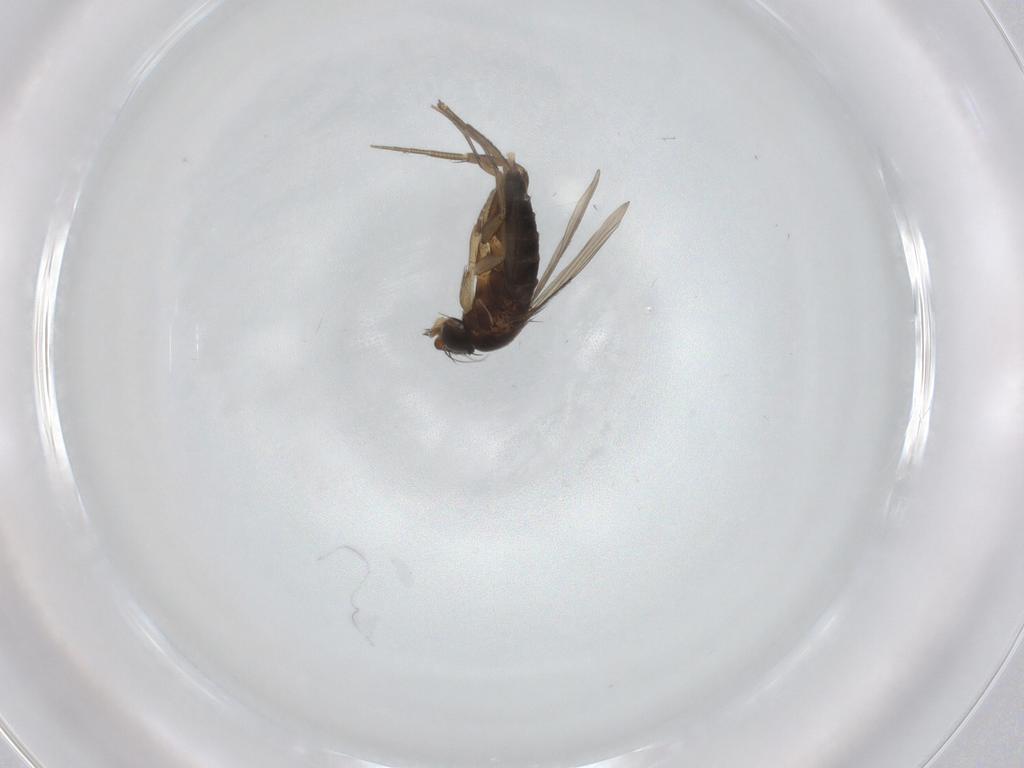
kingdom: Animalia
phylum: Arthropoda
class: Insecta
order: Diptera
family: Phoridae
